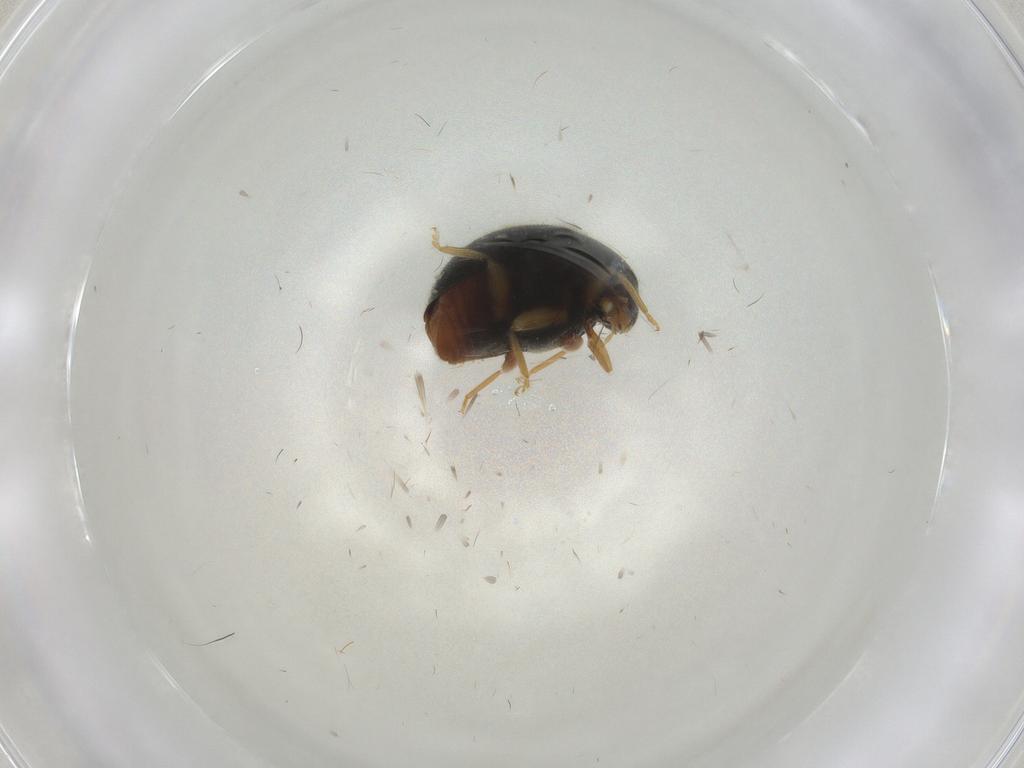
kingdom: Animalia
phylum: Arthropoda
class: Insecta
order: Coleoptera
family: Coccinellidae
